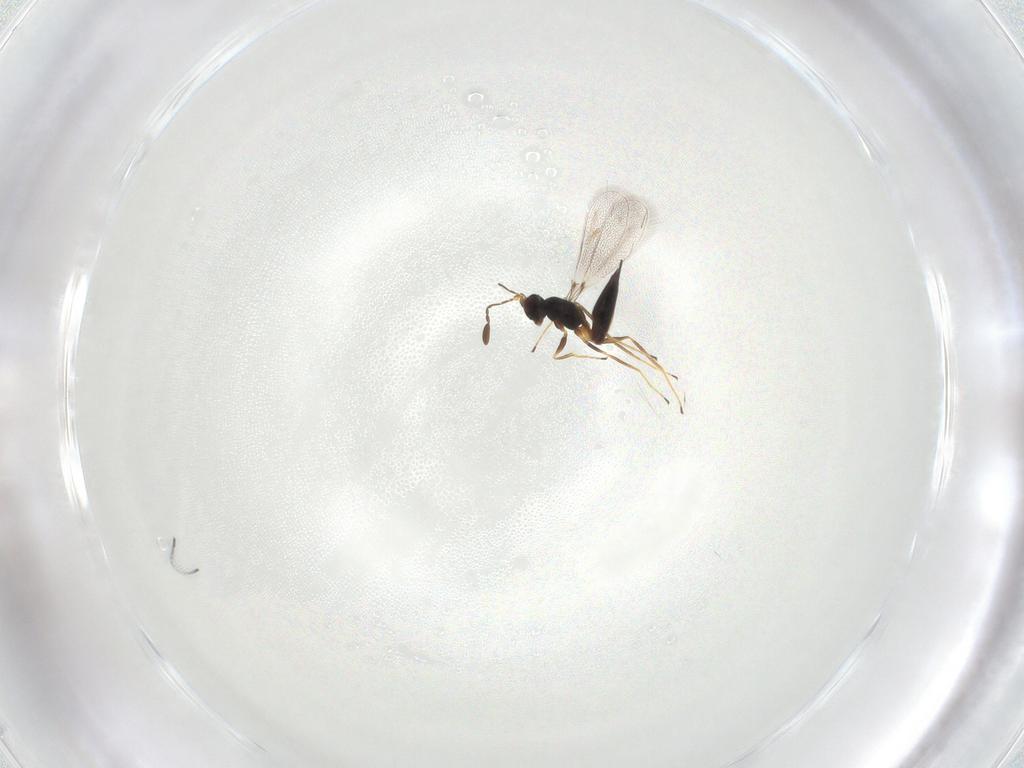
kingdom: Animalia
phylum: Arthropoda
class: Insecta
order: Hymenoptera
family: Mymaridae
